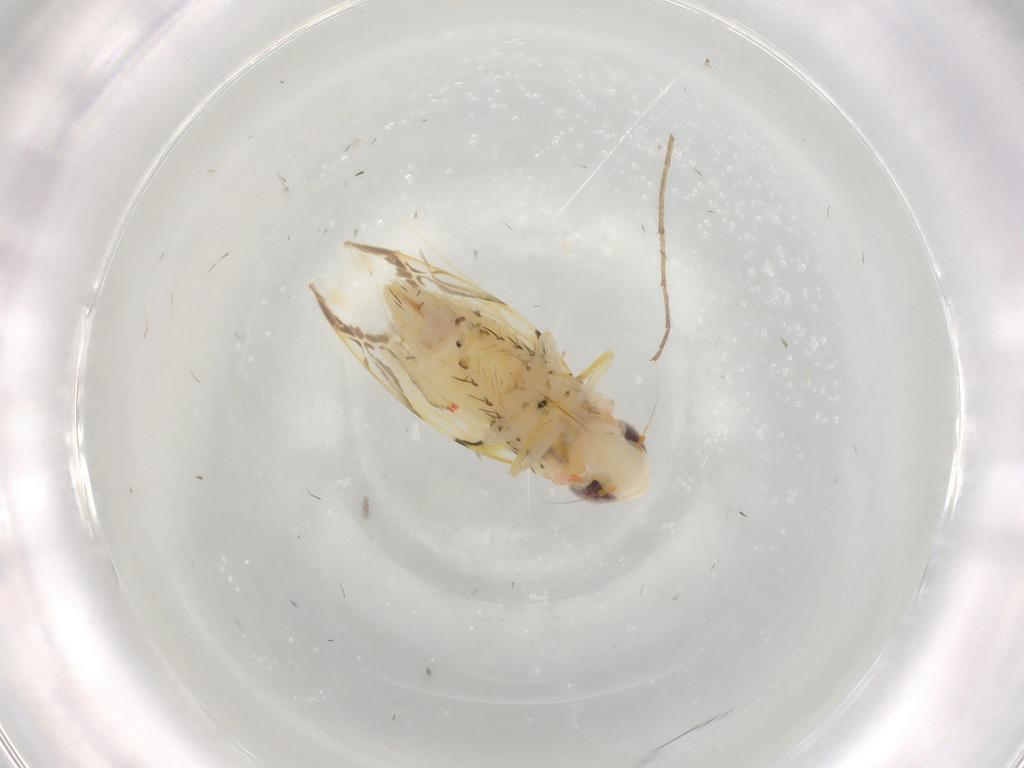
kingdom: Animalia
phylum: Arthropoda
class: Insecta
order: Hemiptera
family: Cicadellidae
